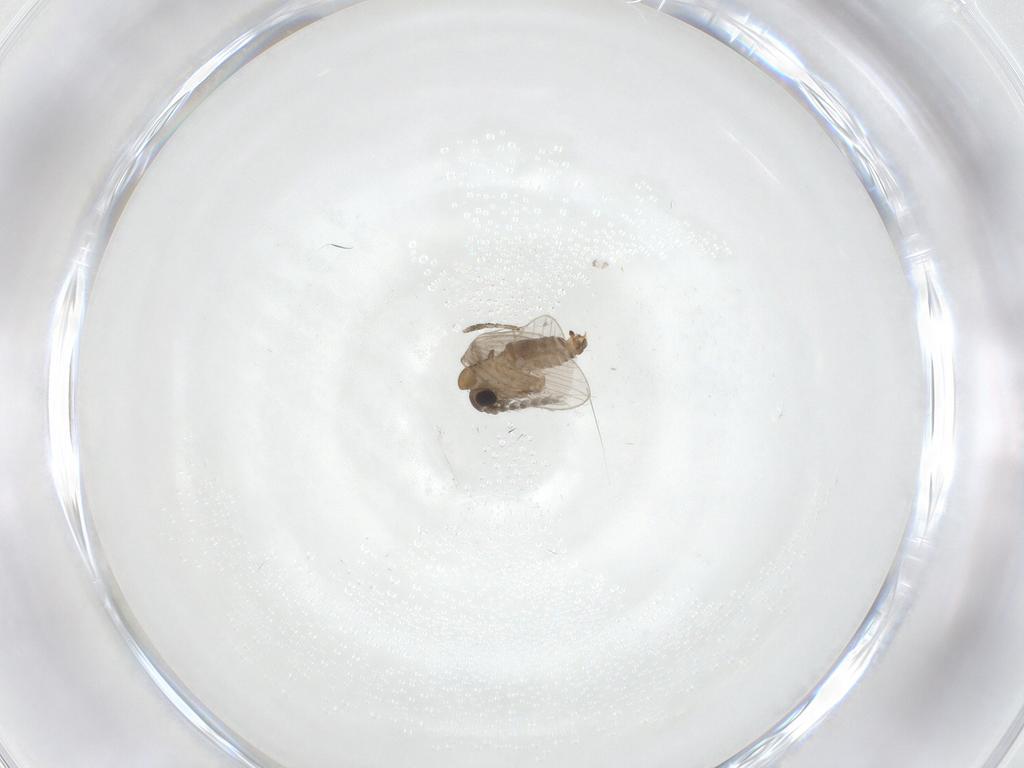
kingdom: Animalia
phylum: Arthropoda
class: Insecta
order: Diptera
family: Psychodidae
